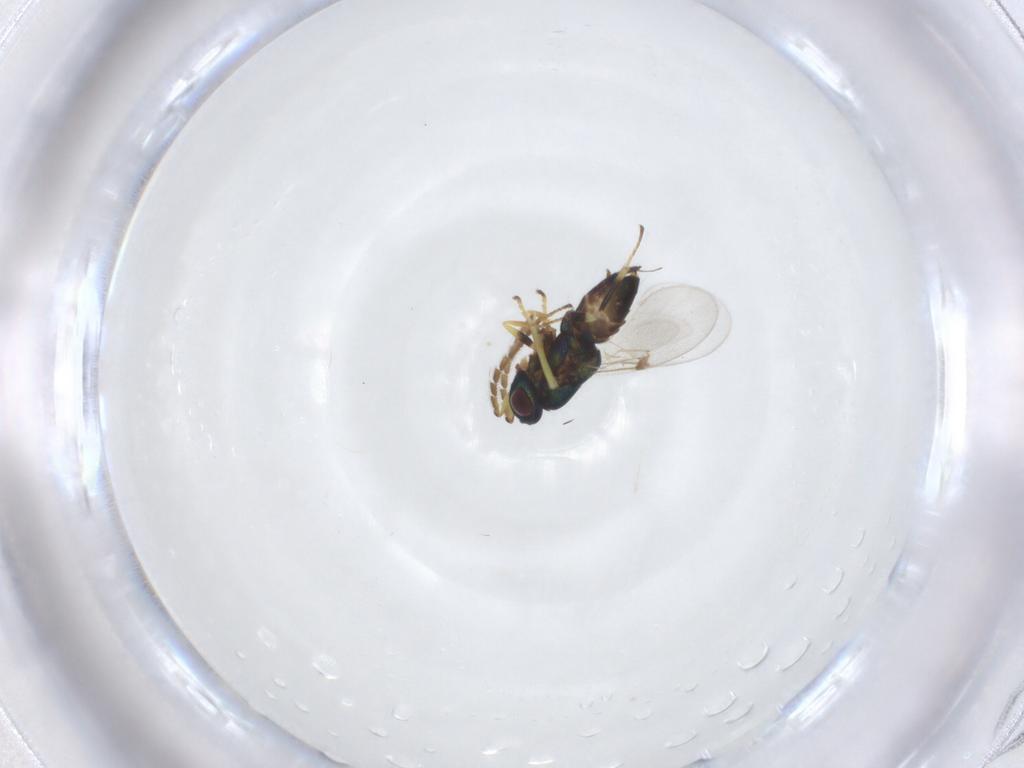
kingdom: Animalia
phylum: Arthropoda
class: Insecta
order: Hymenoptera
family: Encyrtidae
